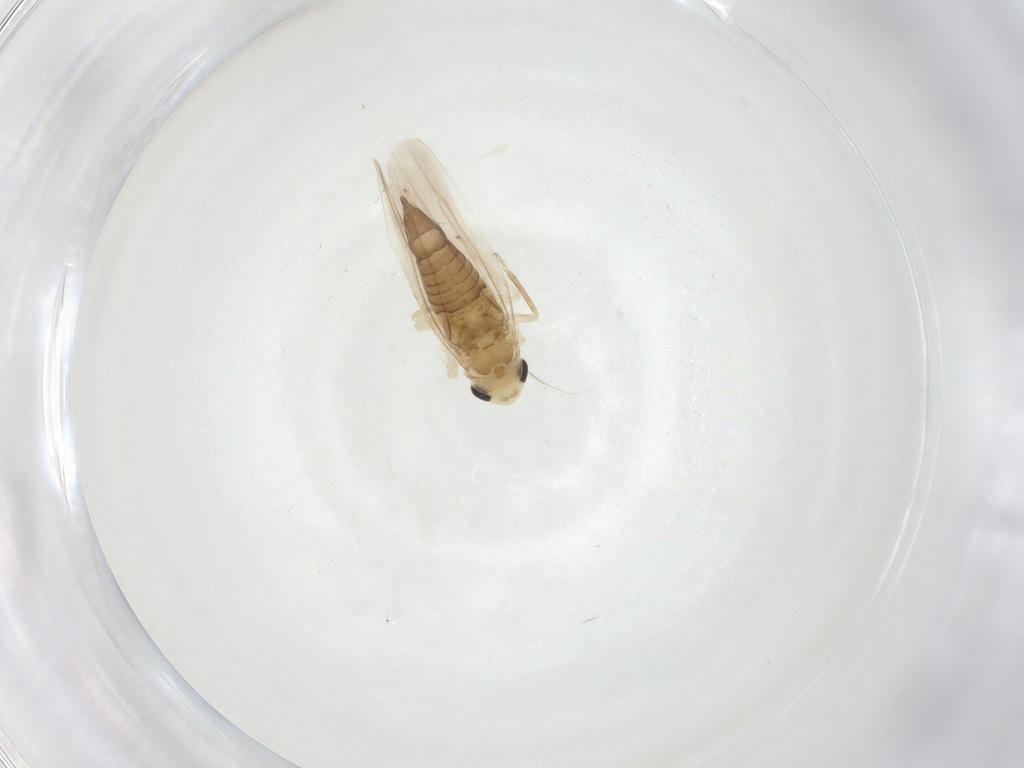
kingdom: Animalia
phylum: Arthropoda
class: Insecta
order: Hemiptera
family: Cicadellidae
